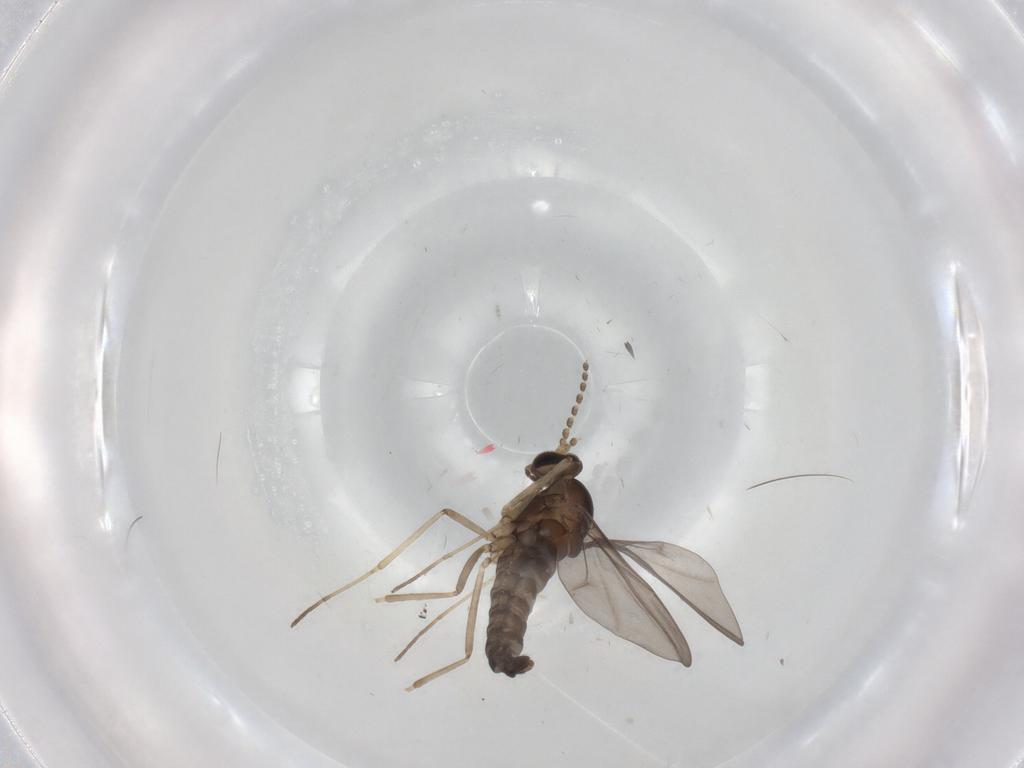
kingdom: Animalia
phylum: Arthropoda
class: Insecta
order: Diptera
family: Cecidomyiidae
